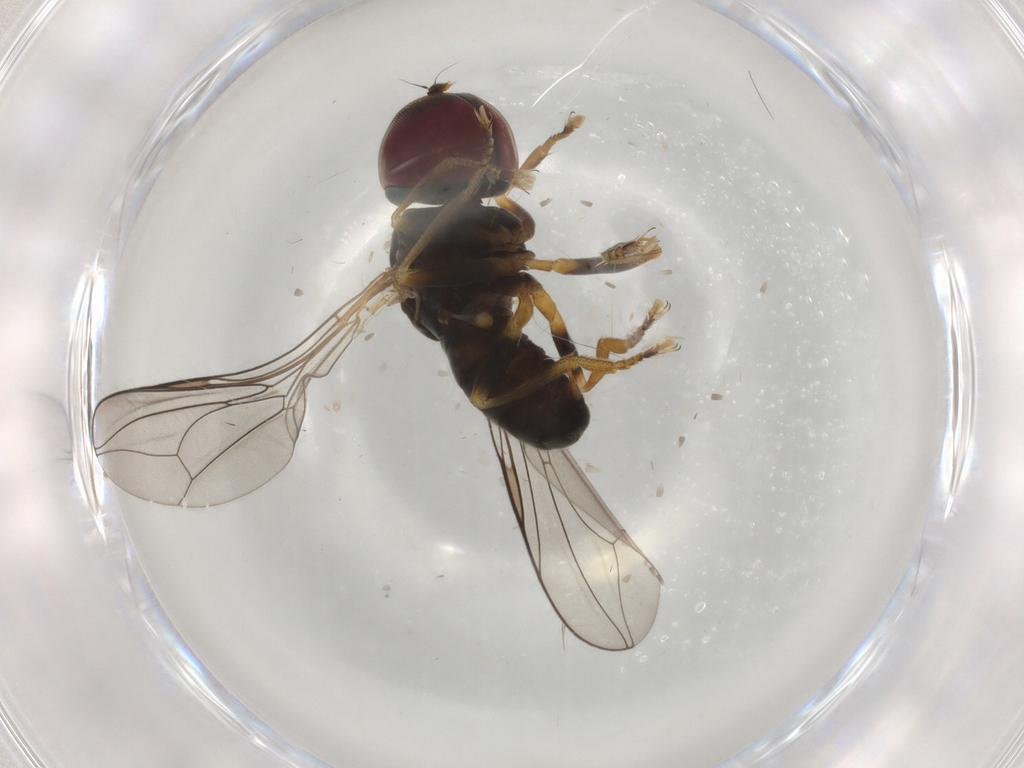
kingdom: Animalia
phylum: Arthropoda
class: Insecta
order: Diptera
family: Pipunculidae
